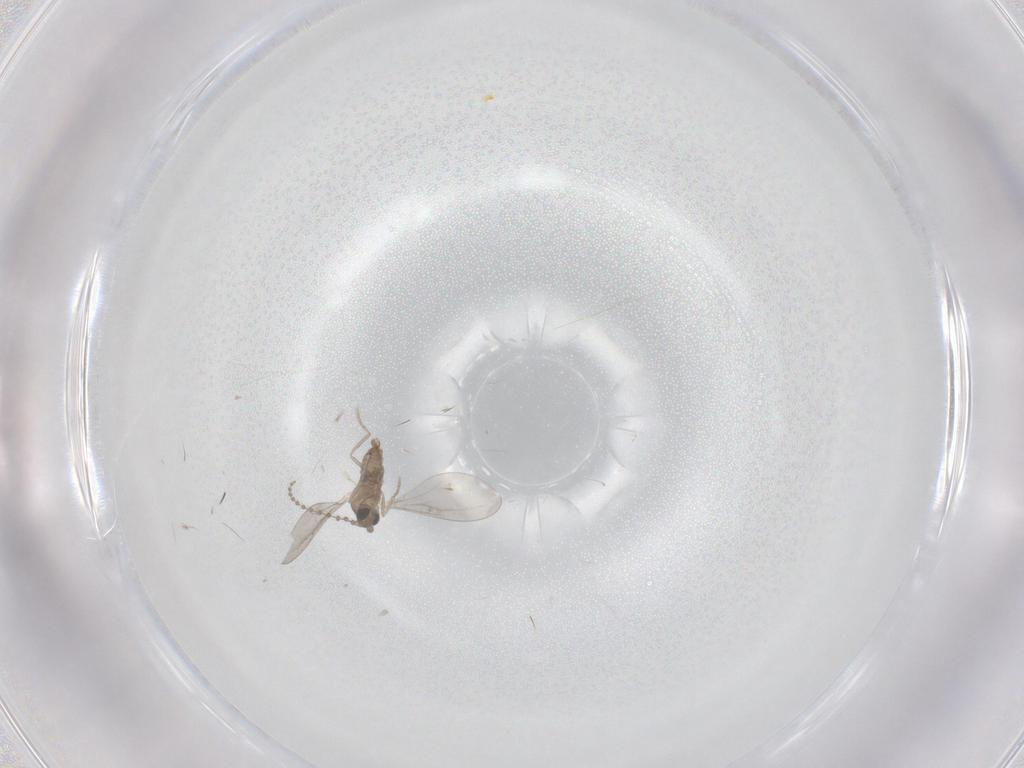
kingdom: Animalia
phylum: Arthropoda
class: Insecta
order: Diptera
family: Cecidomyiidae
